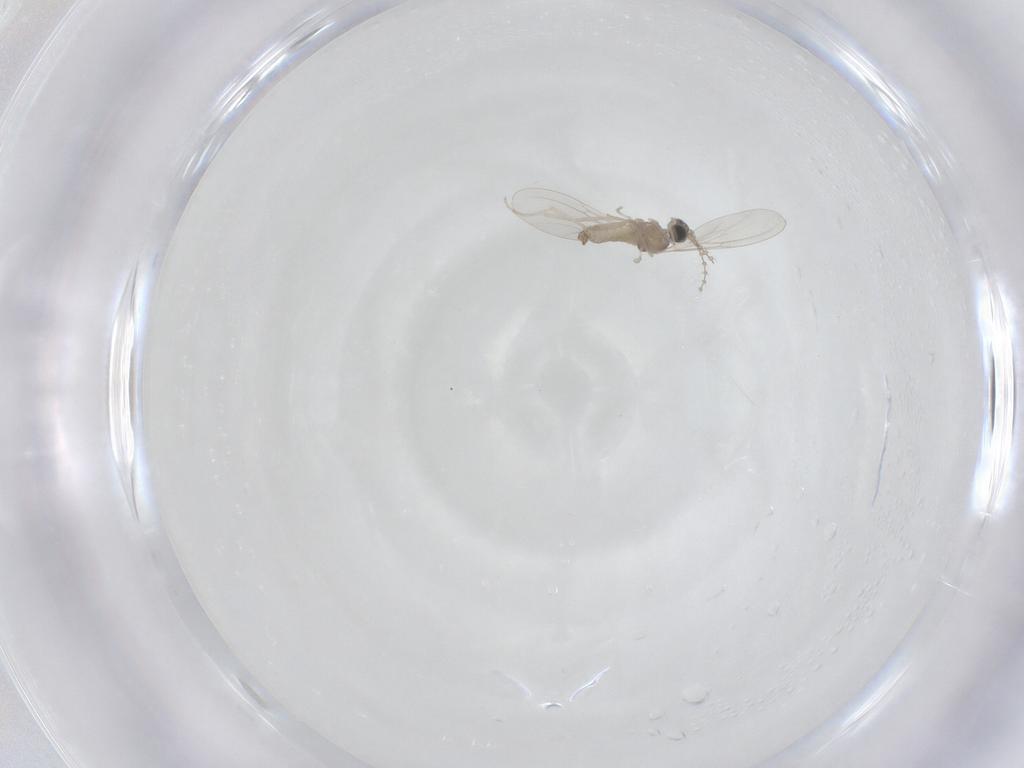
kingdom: Animalia
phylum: Arthropoda
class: Insecta
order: Diptera
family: Cecidomyiidae
